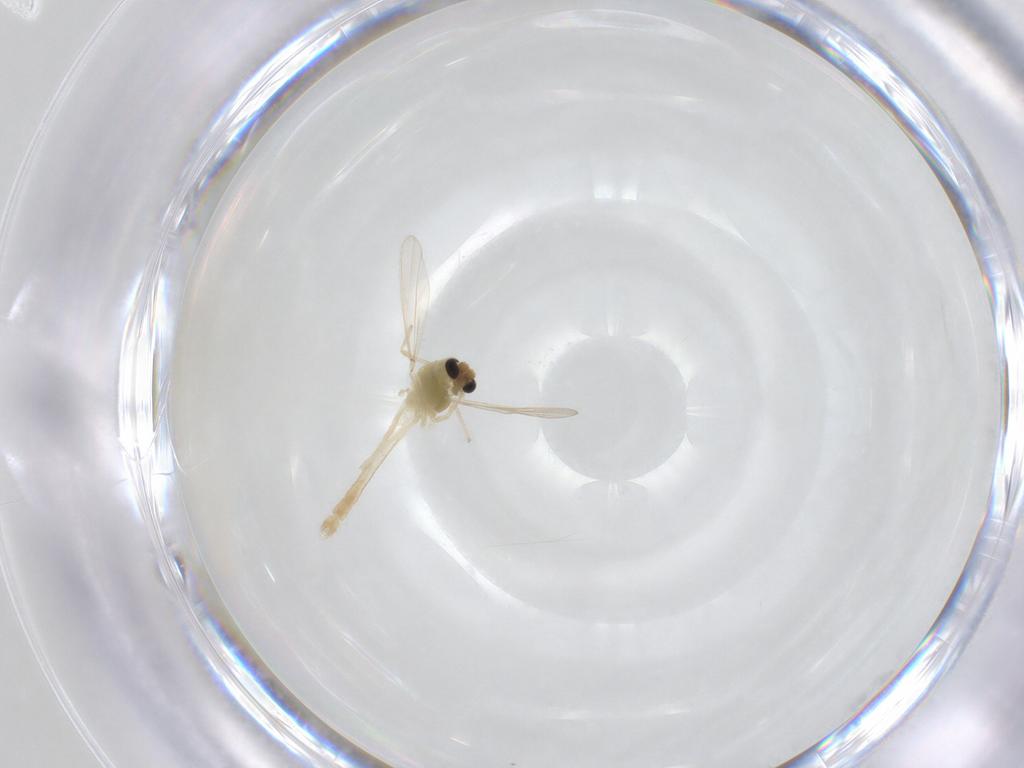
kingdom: Animalia
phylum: Arthropoda
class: Insecta
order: Diptera
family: Chironomidae
